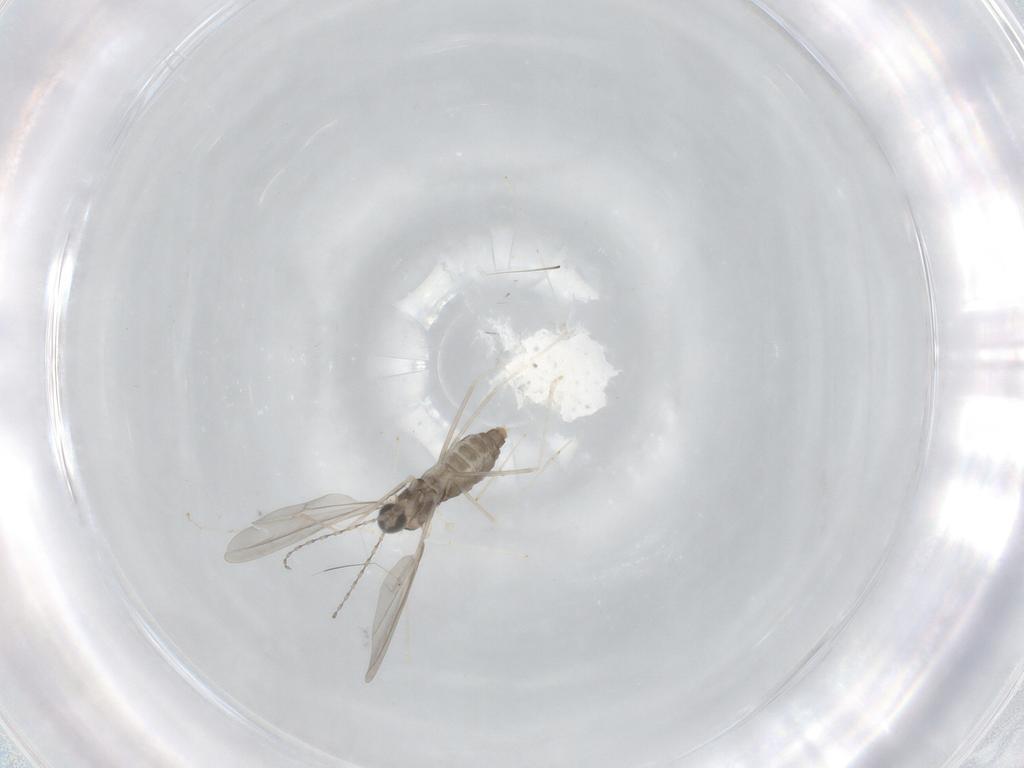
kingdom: Animalia
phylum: Arthropoda
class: Insecta
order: Diptera
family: Cecidomyiidae
